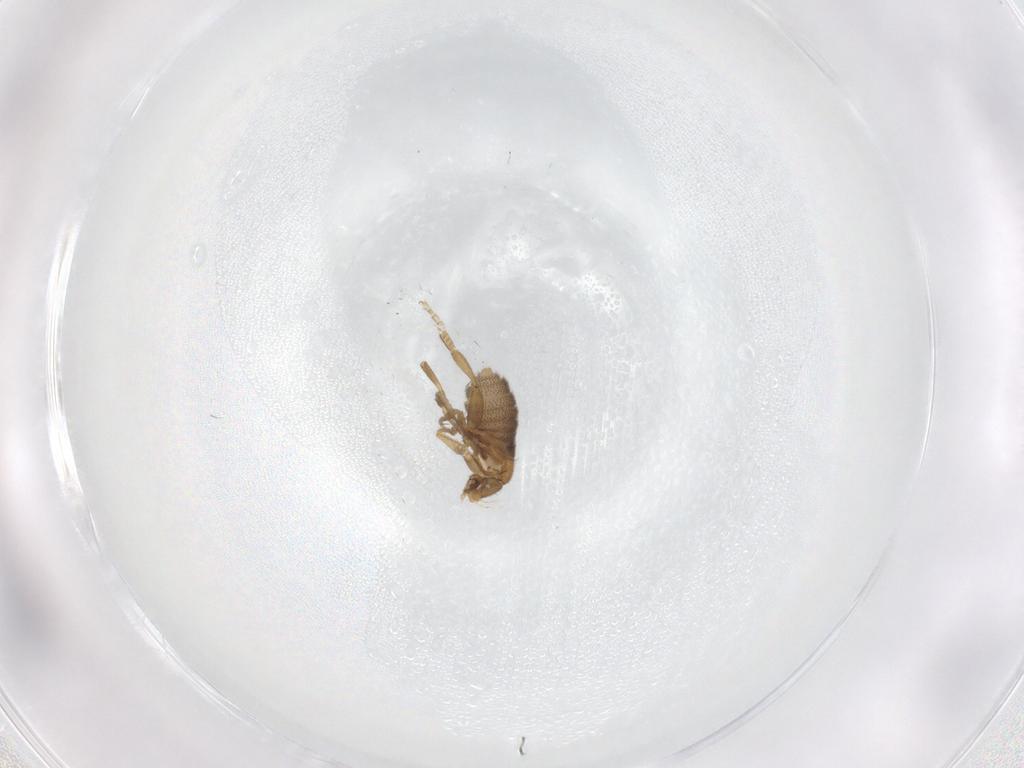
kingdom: Animalia
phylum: Arthropoda
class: Insecta
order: Diptera
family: Phoridae
